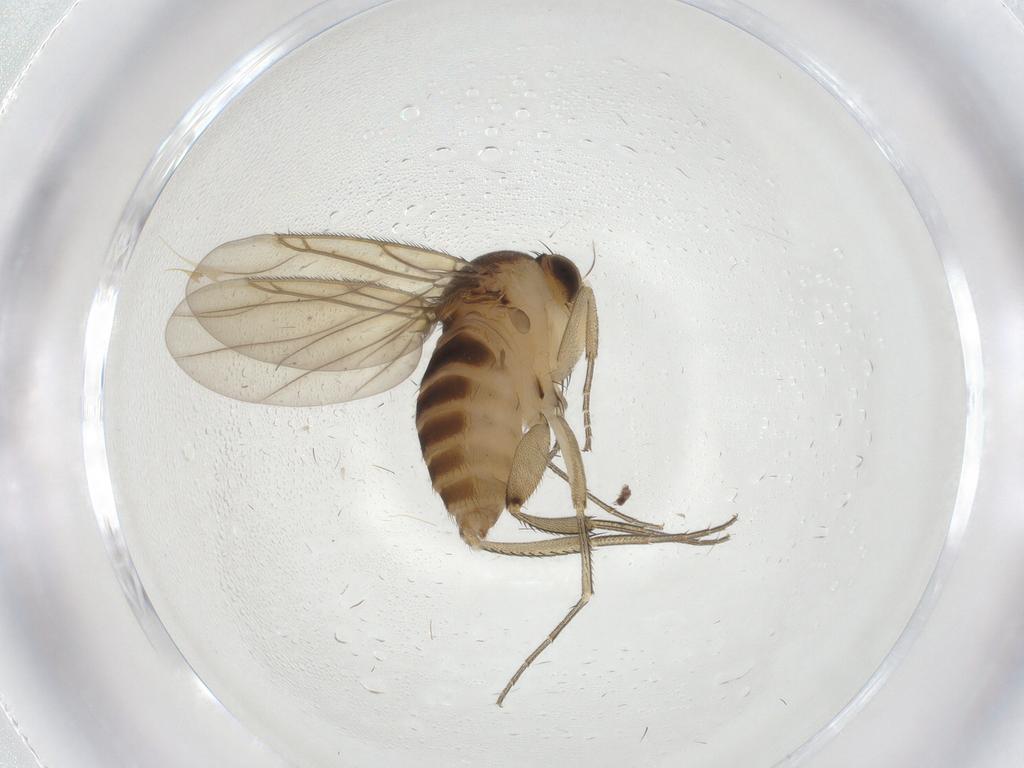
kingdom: Animalia
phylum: Arthropoda
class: Insecta
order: Diptera
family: Phoridae
